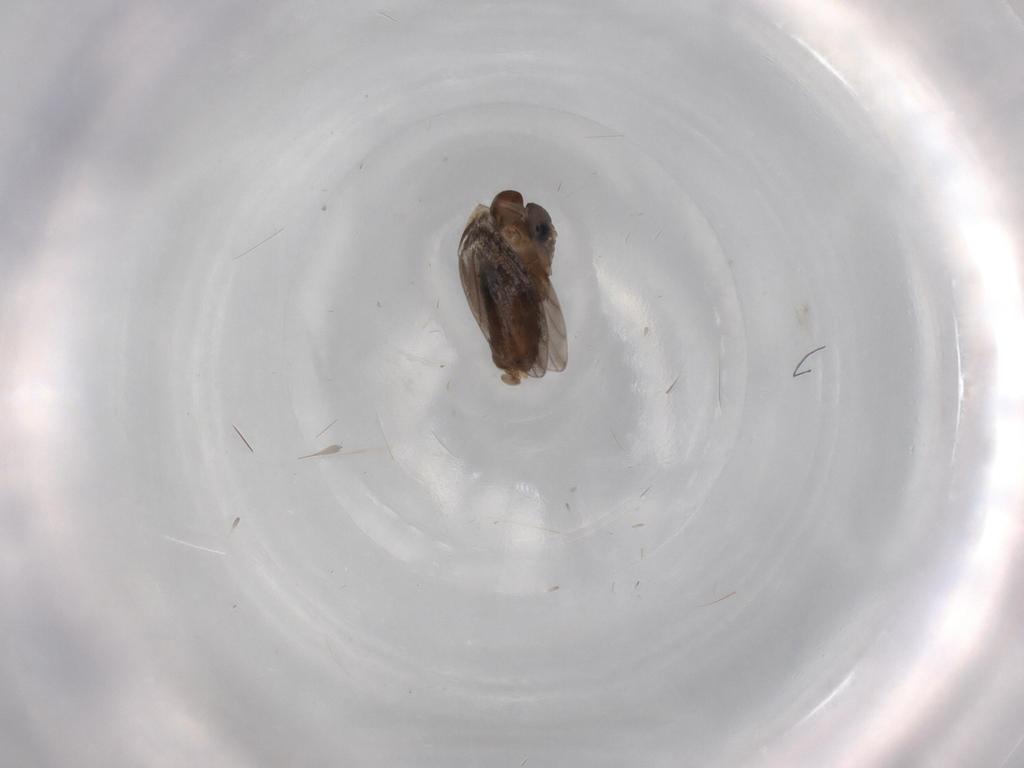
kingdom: Animalia
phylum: Arthropoda
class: Insecta
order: Diptera
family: Psychodidae
